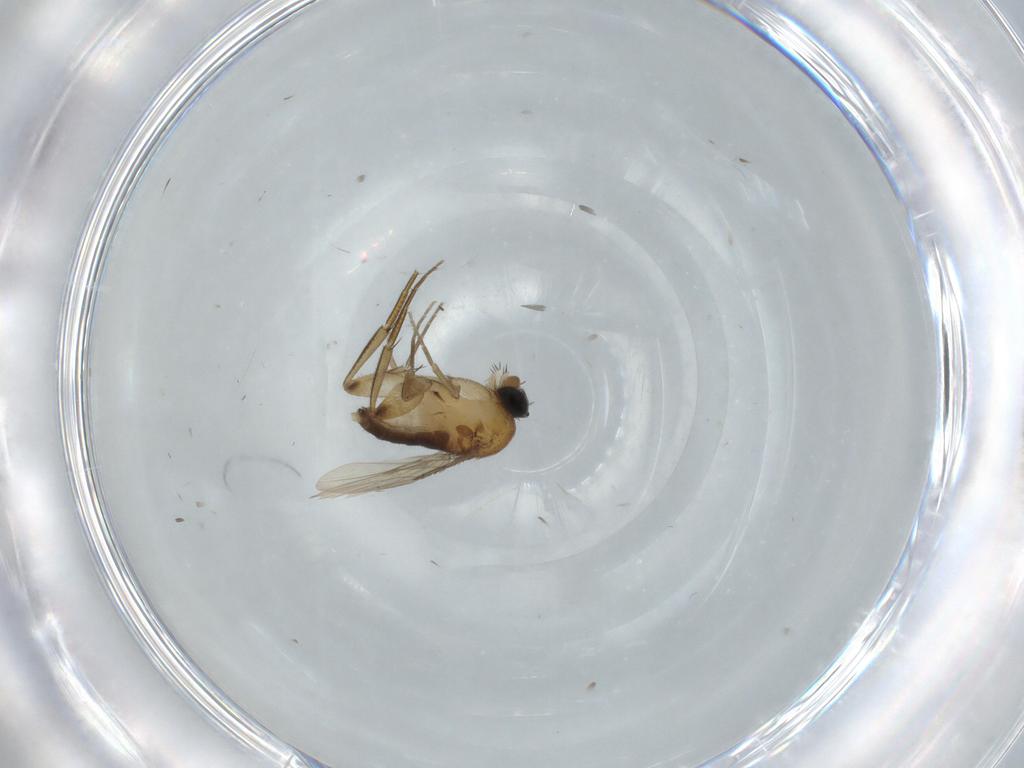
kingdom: Animalia
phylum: Arthropoda
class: Insecta
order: Diptera
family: Phoridae
